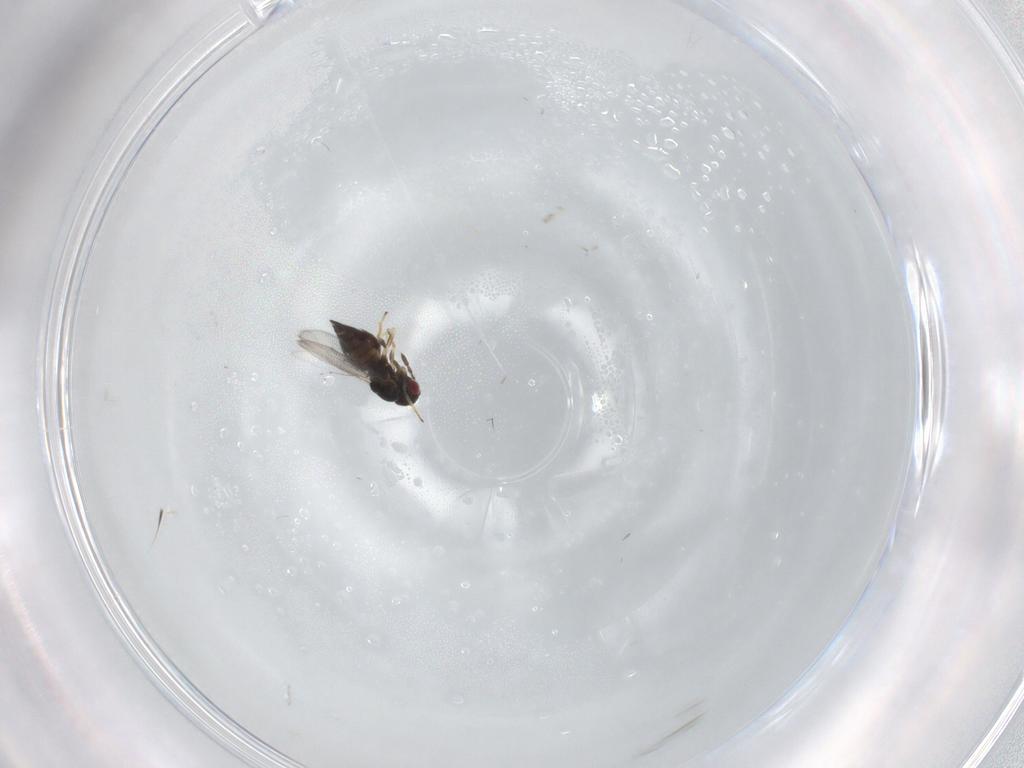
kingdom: Animalia
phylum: Arthropoda
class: Insecta
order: Hymenoptera
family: Eulophidae
